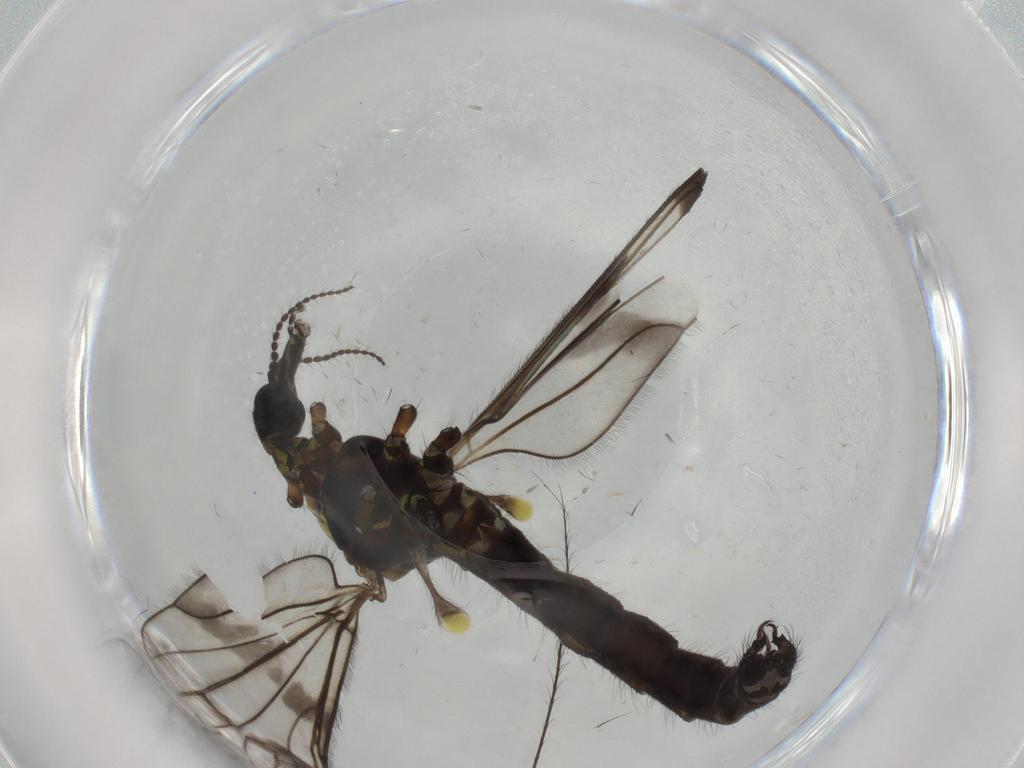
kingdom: Animalia
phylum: Arthropoda
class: Insecta
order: Diptera
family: Limoniidae
